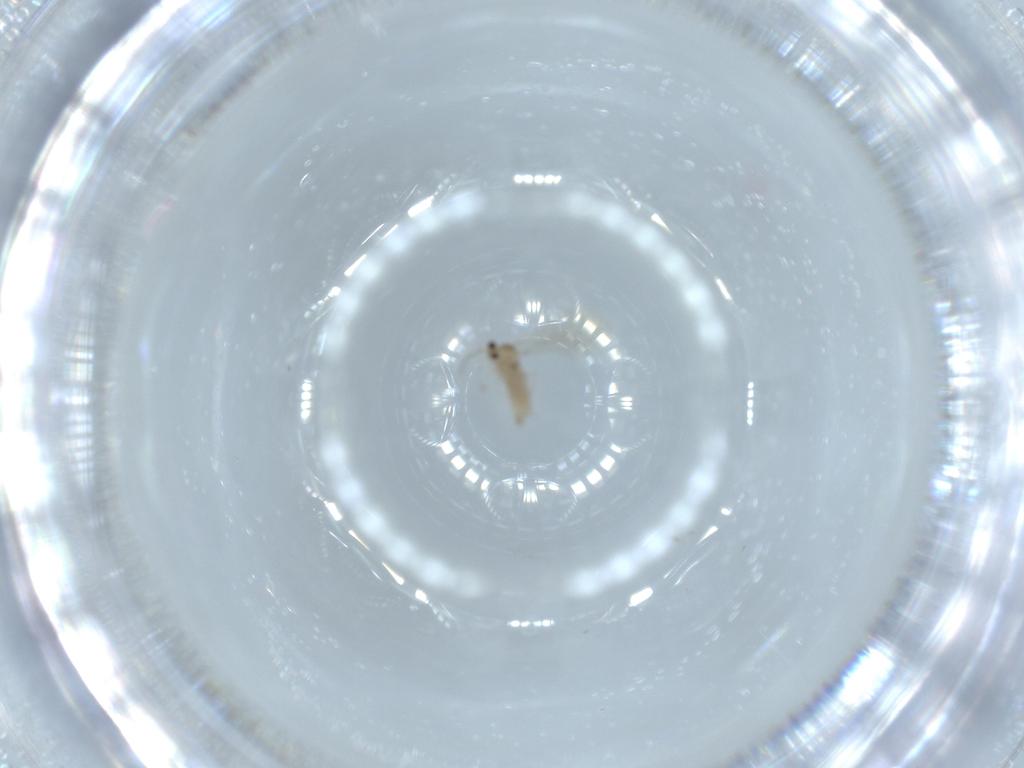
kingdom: Animalia
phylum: Arthropoda
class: Insecta
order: Diptera
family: Cecidomyiidae
